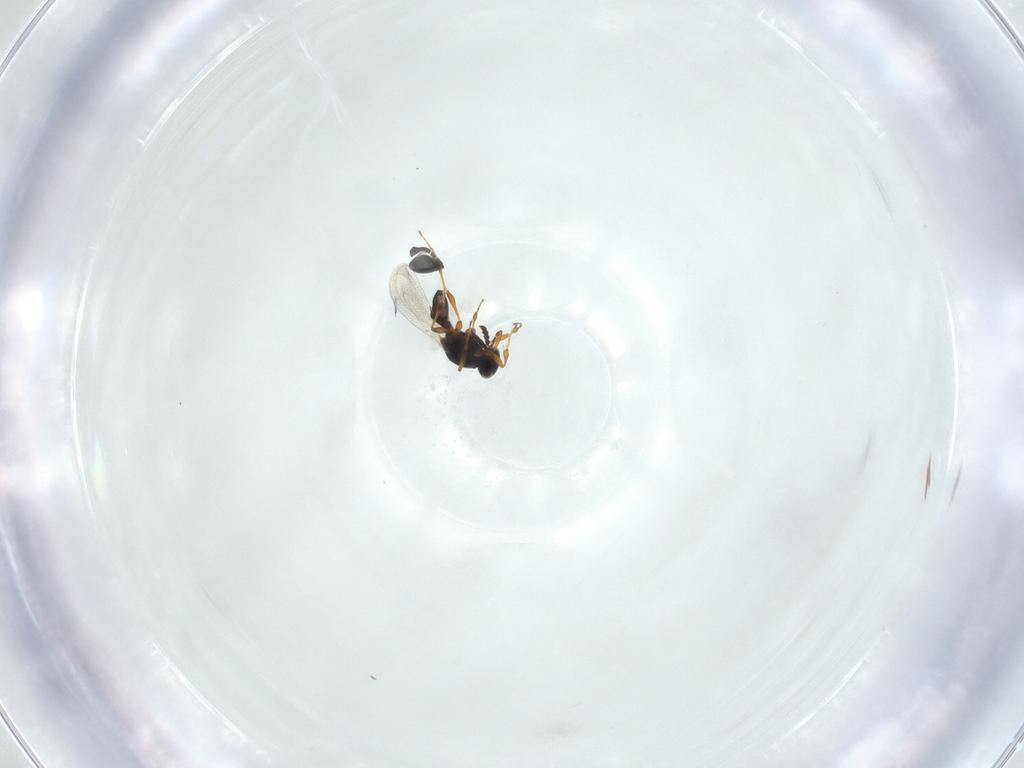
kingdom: Animalia
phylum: Arthropoda
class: Insecta
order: Hymenoptera
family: Platygastridae
